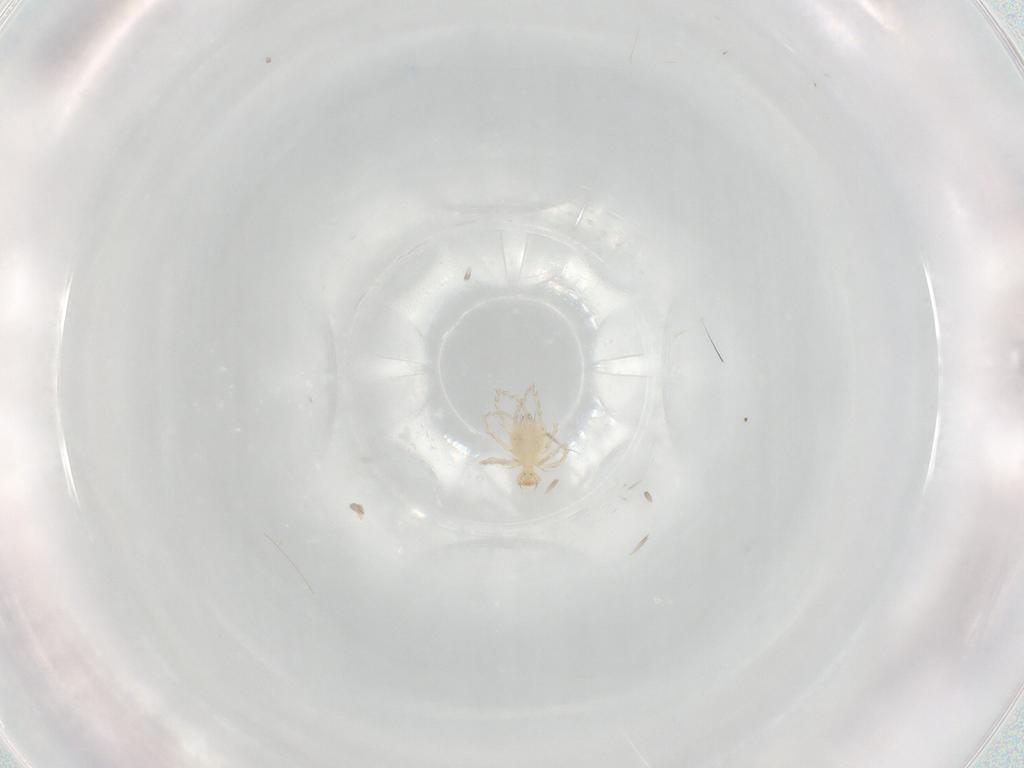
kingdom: Animalia
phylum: Arthropoda
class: Arachnida
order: Trombidiformes
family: Erythraeidae
